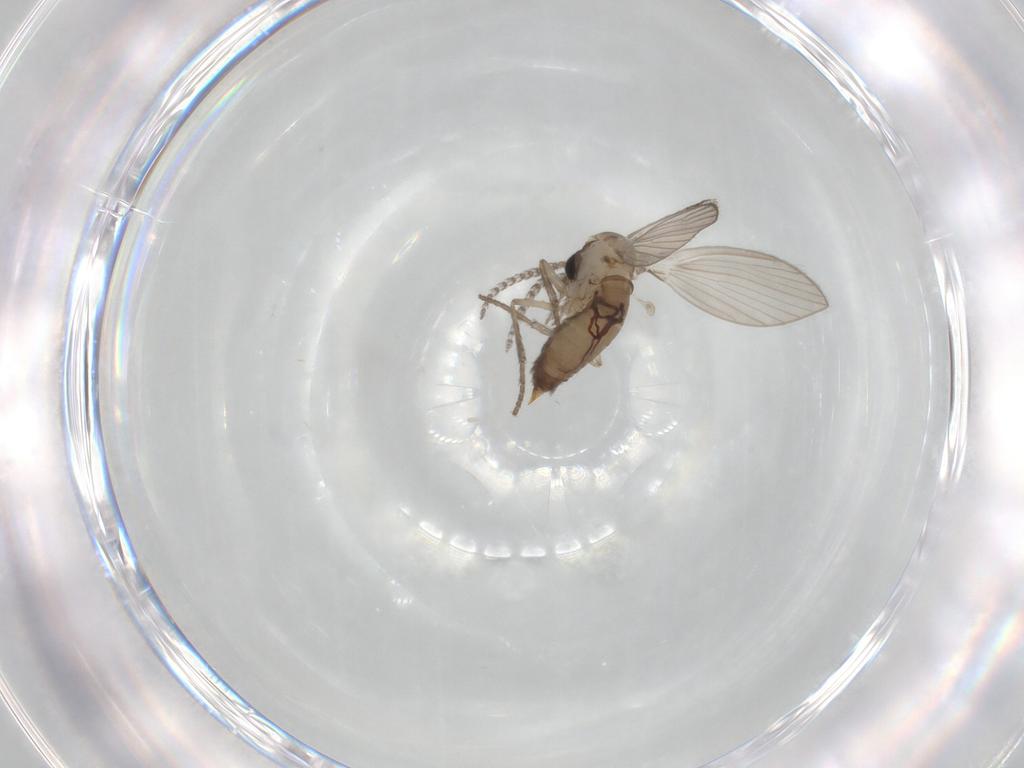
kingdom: Animalia
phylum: Arthropoda
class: Insecta
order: Diptera
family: Psychodidae
